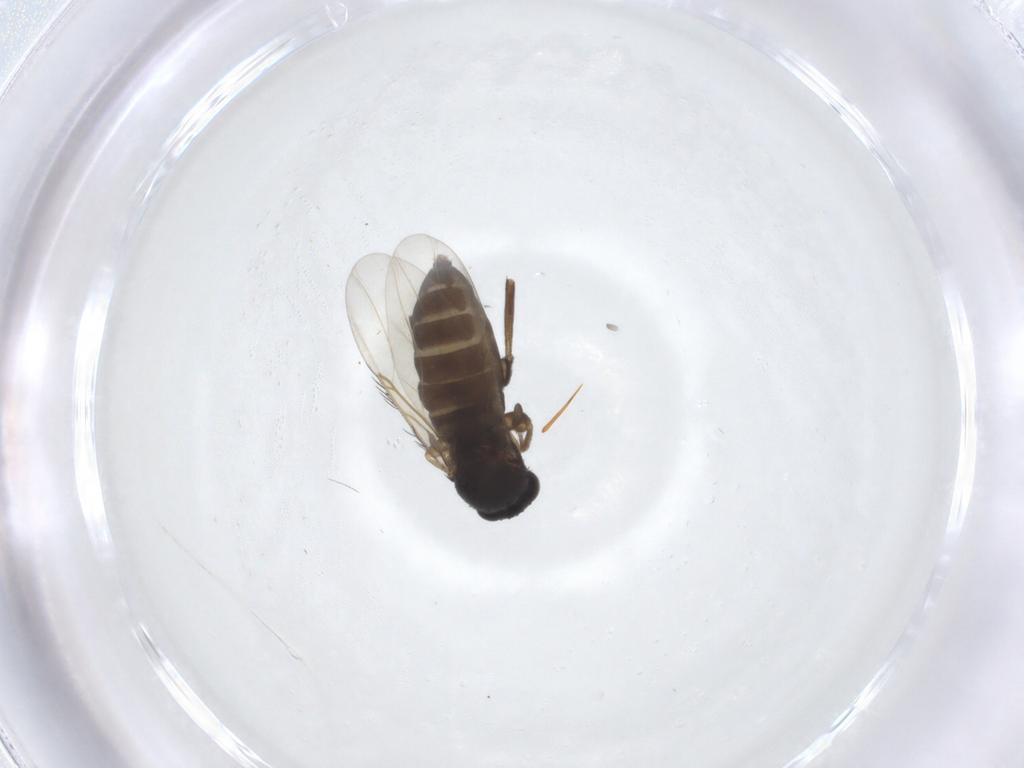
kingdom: Animalia
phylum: Arthropoda
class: Insecta
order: Diptera
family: Phoridae
